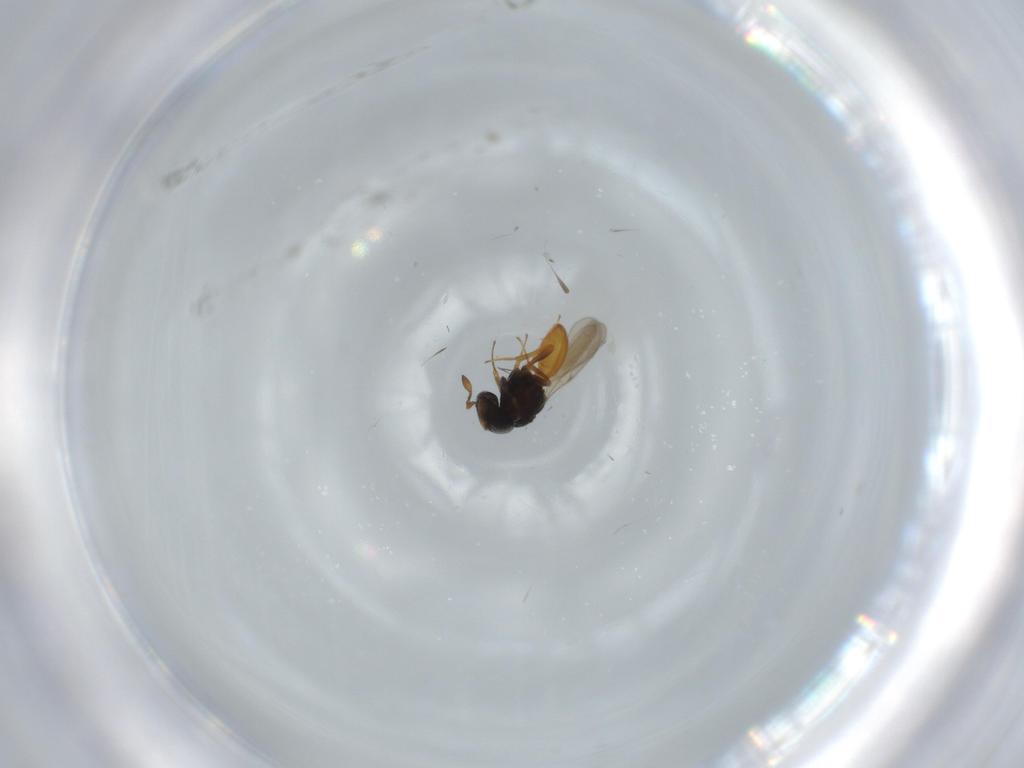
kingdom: Animalia
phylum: Arthropoda
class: Insecta
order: Hymenoptera
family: Scelionidae
